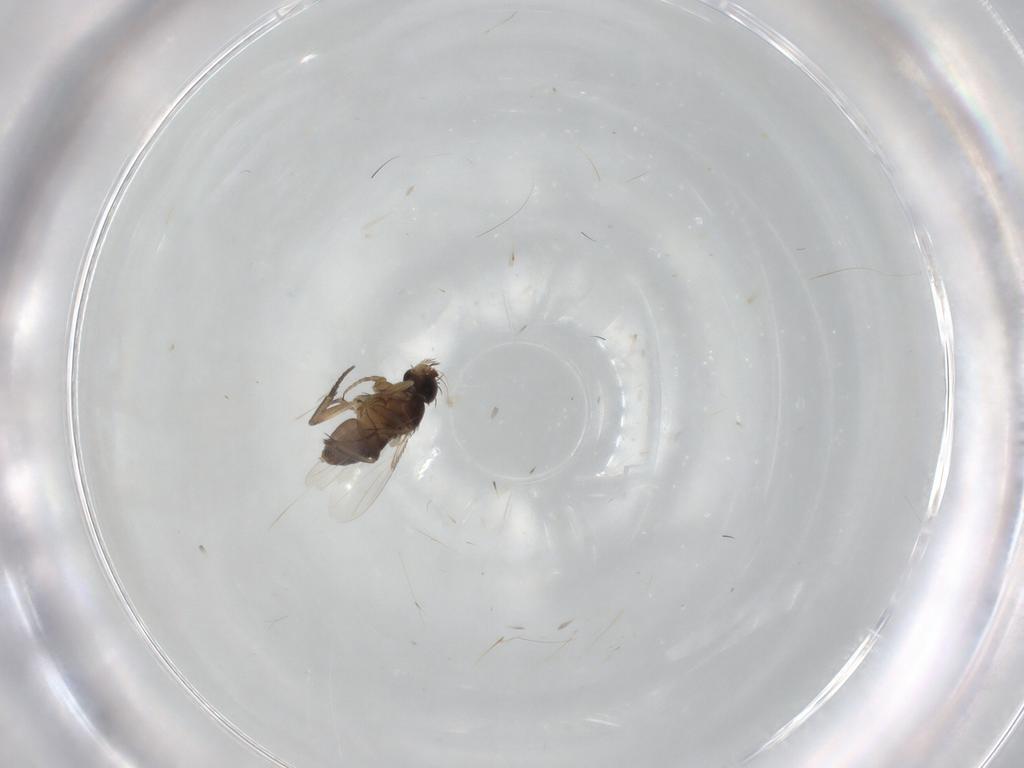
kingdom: Animalia
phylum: Arthropoda
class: Insecta
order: Diptera
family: Phoridae
